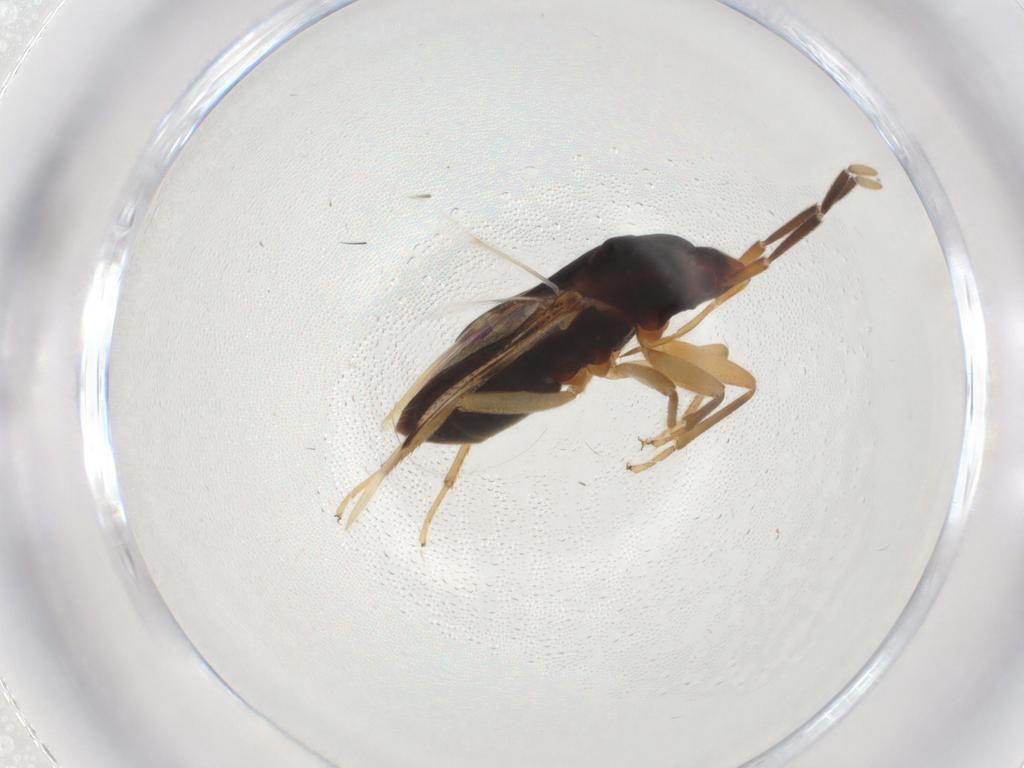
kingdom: Animalia
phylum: Arthropoda
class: Insecta
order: Hemiptera
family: Rhyparochromidae
